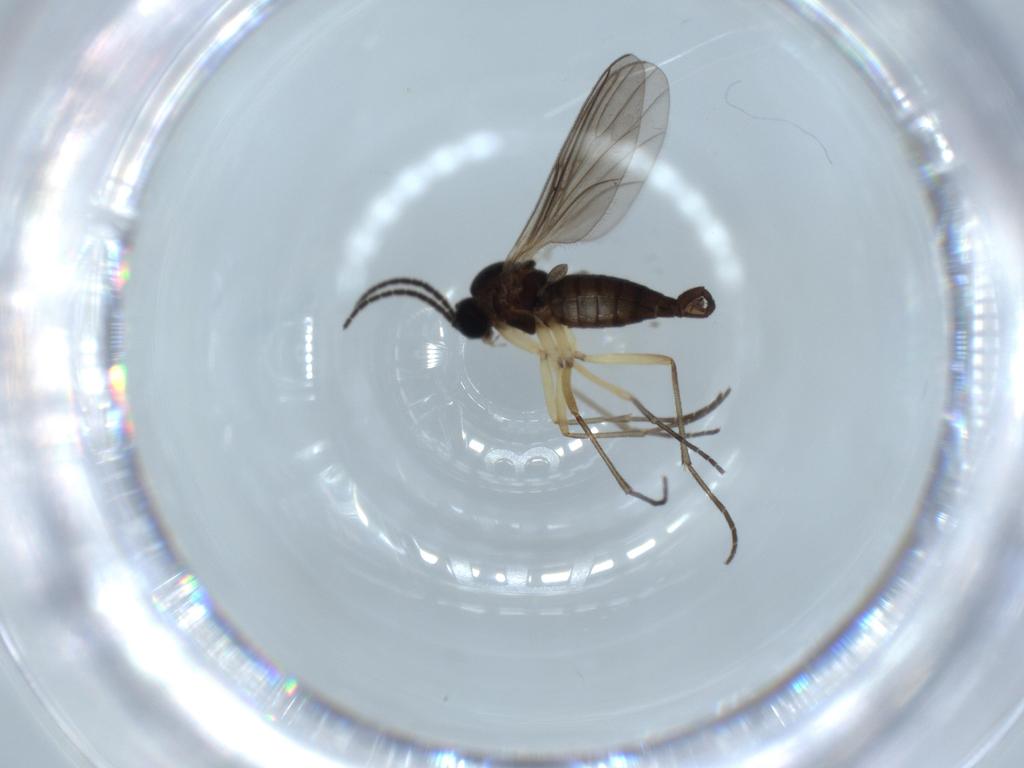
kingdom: Animalia
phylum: Arthropoda
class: Insecta
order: Diptera
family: Sciaridae
